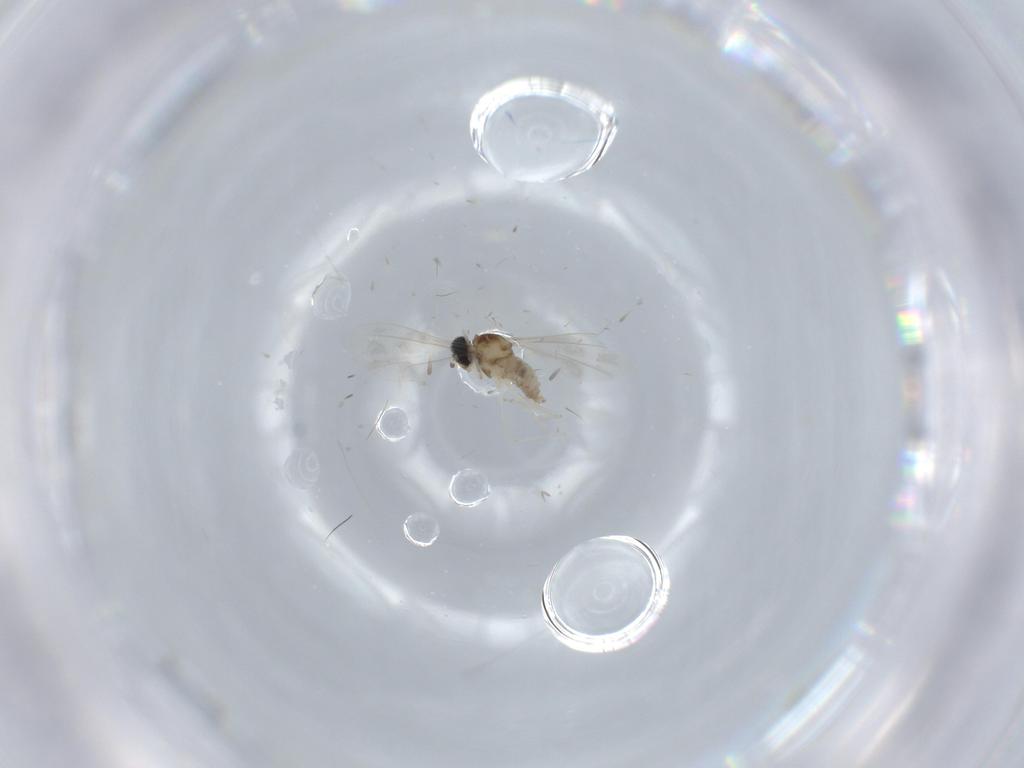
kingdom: Animalia
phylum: Arthropoda
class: Insecta
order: Diptera
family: Cecidomyiidae
